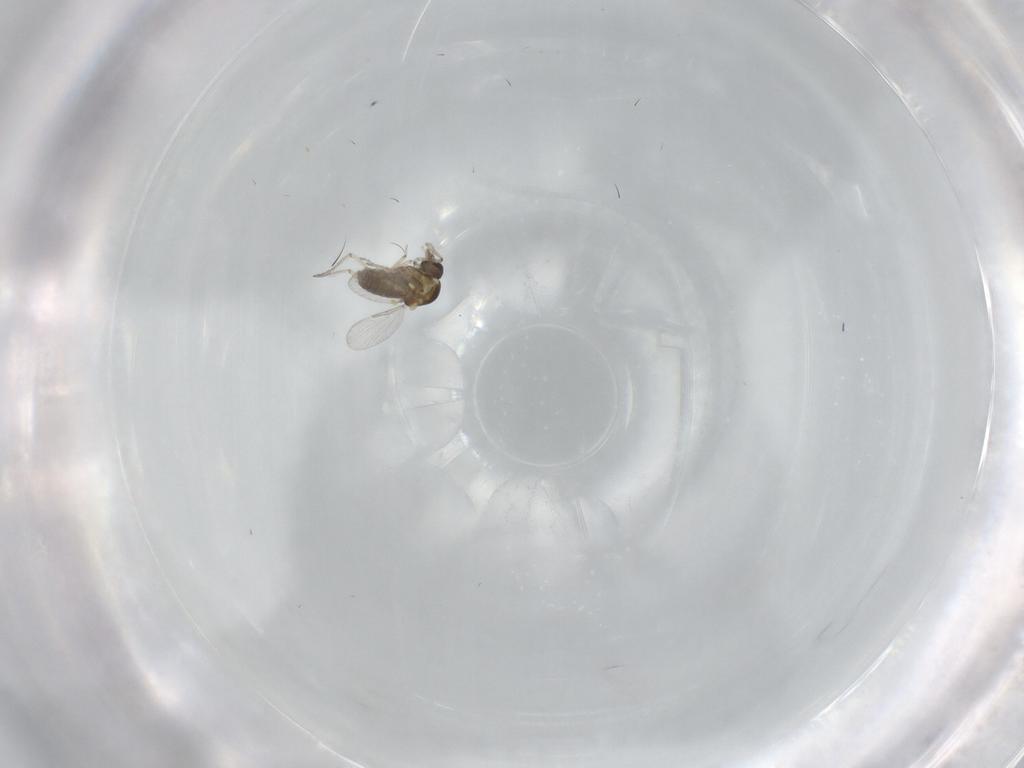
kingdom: Animalia
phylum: Arthropoda
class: Insecta
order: Diptera
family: Ceratopogonidae
